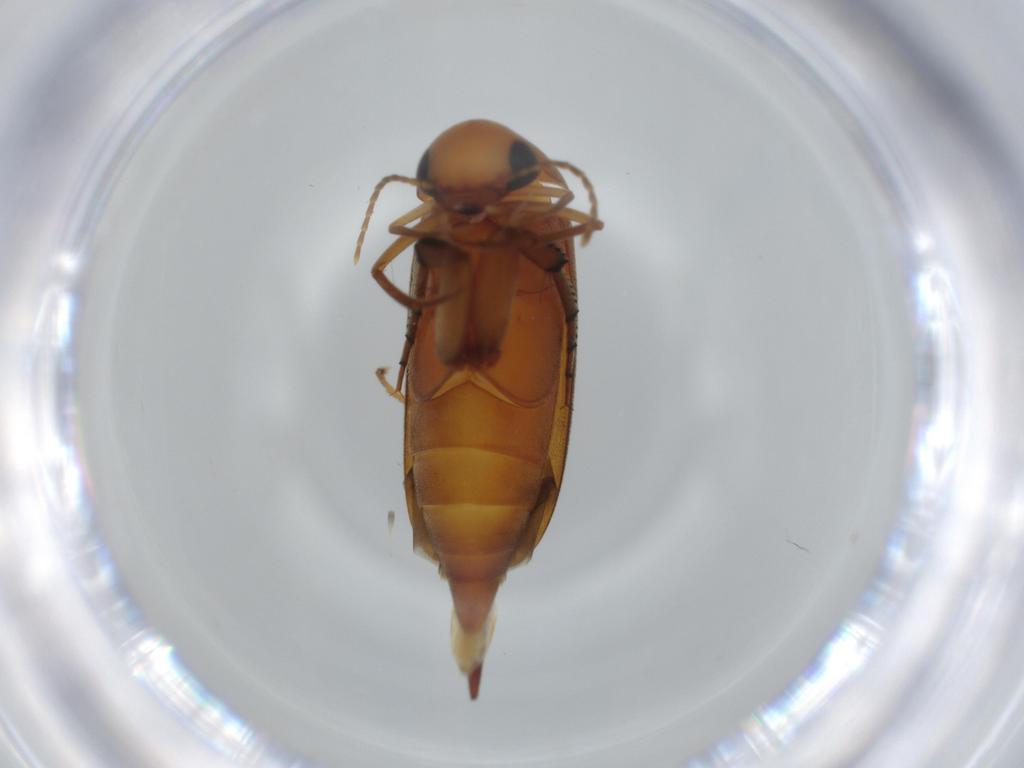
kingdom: Animalia
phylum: Arthropoda
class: Insecta
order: Coleoptera
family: Mordellidae
